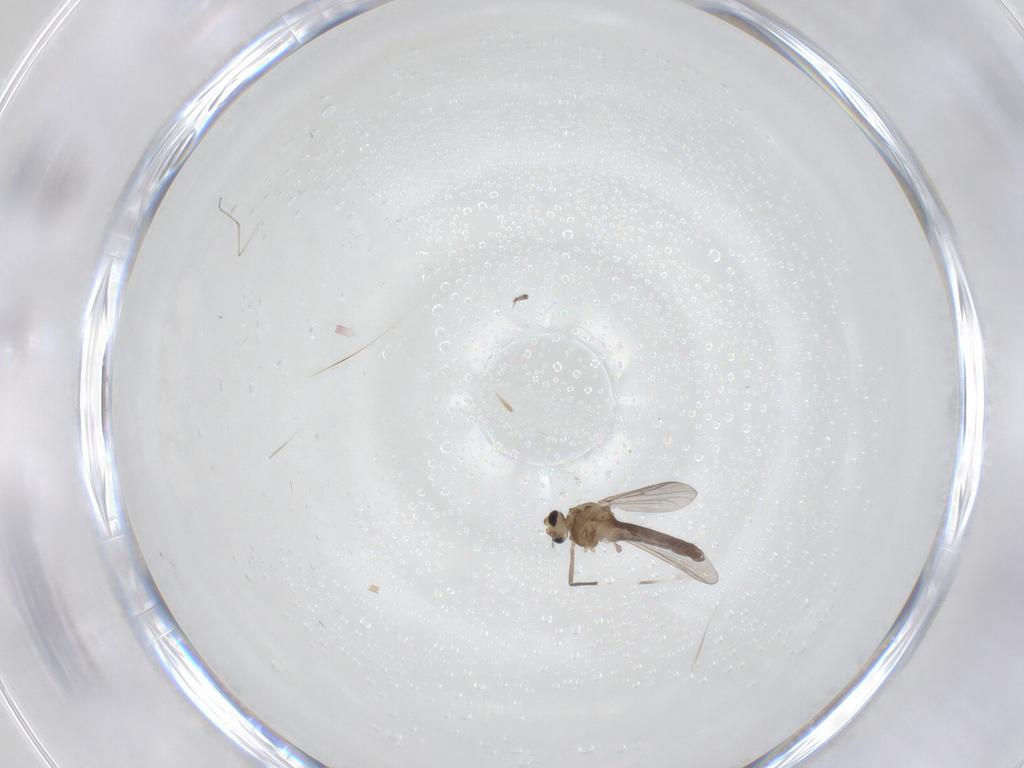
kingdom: Animalia
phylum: Arthropoda
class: Insecta
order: Diptera
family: Chironomidae
